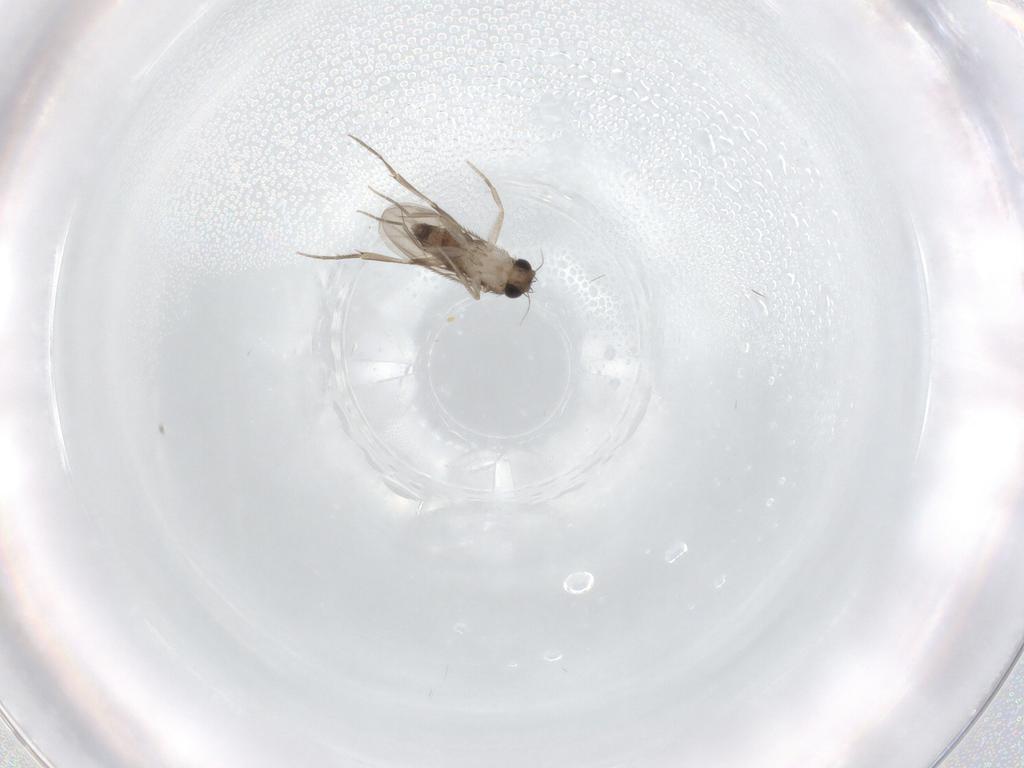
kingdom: Animalia
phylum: Arthropoda
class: Insecta
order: Diptera
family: Phoridae
